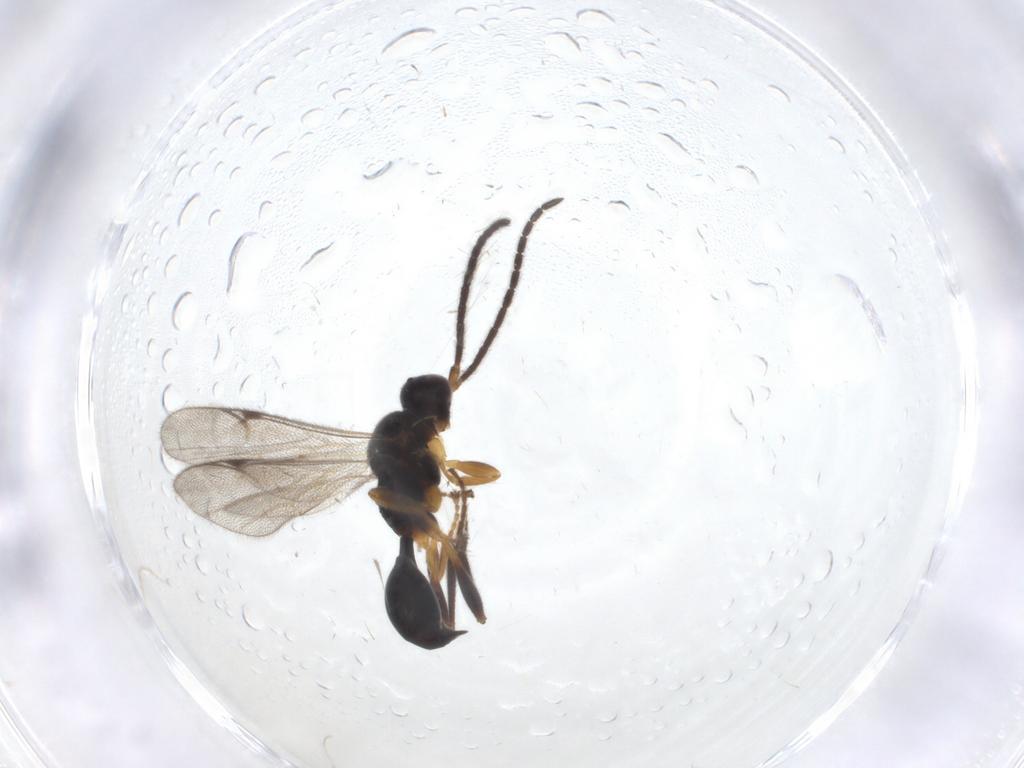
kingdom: Animalia
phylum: Arthropoda
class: Insecta
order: Hymenoptera
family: Proctotrupidae
